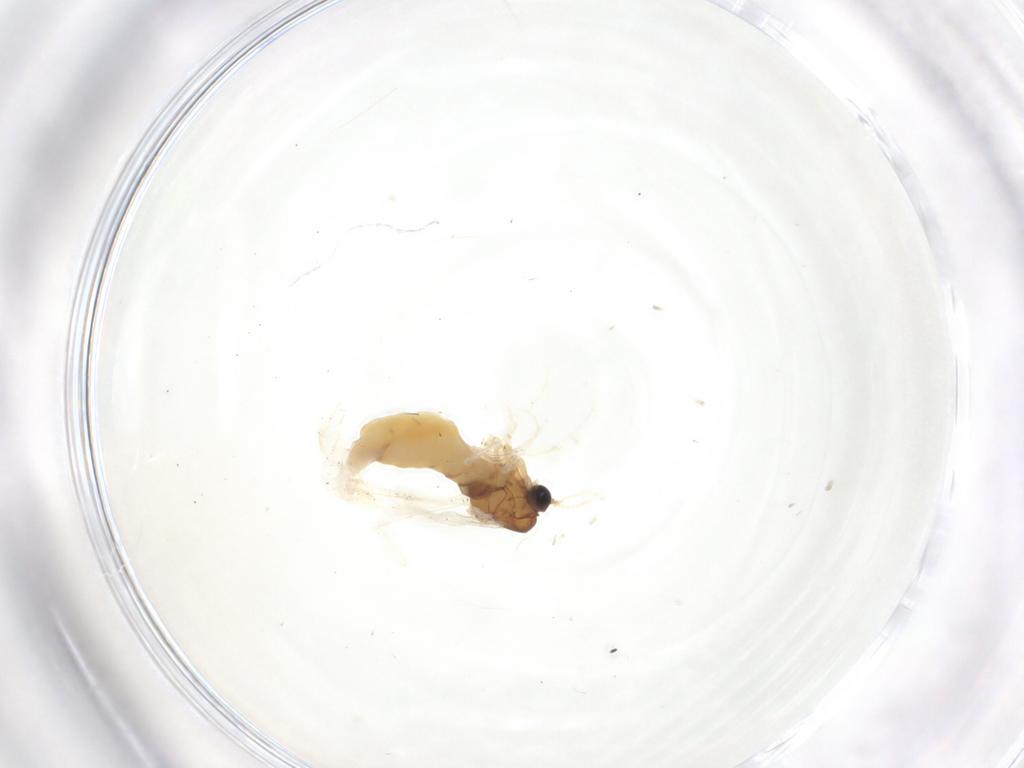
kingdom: Animalia
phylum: Arthropoda
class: Insecta
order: Diptera
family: Sciaridae
